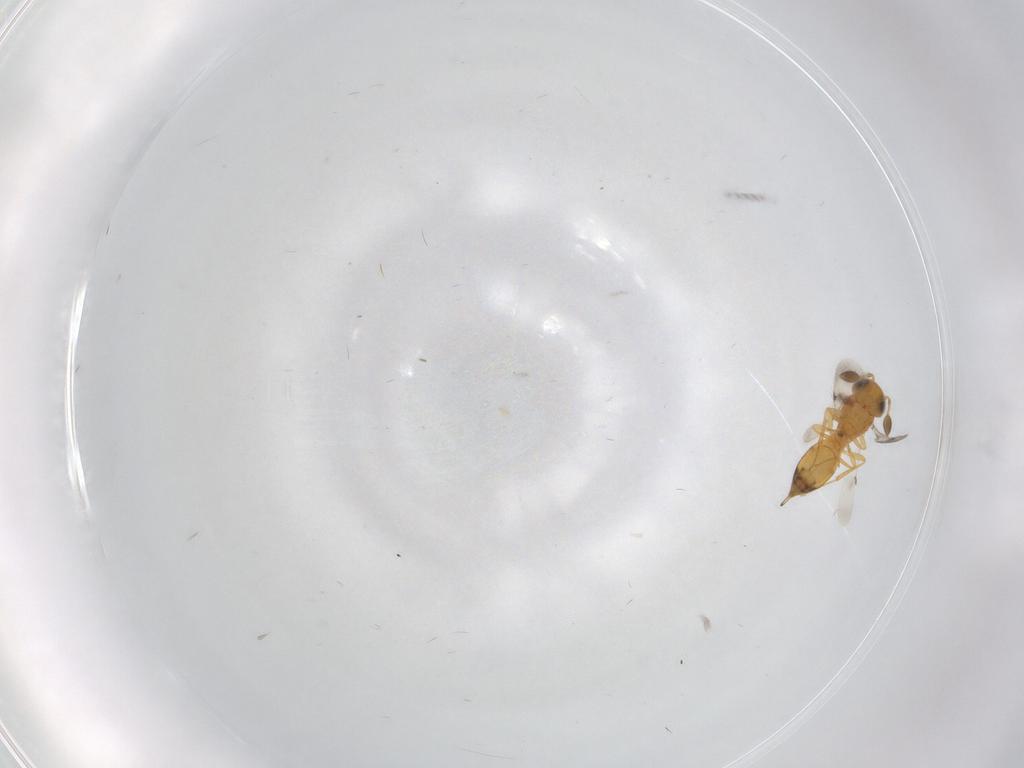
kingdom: Animalia
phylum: Arthropoda
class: Insecta
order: Hymenoptera
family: Scelionidae
